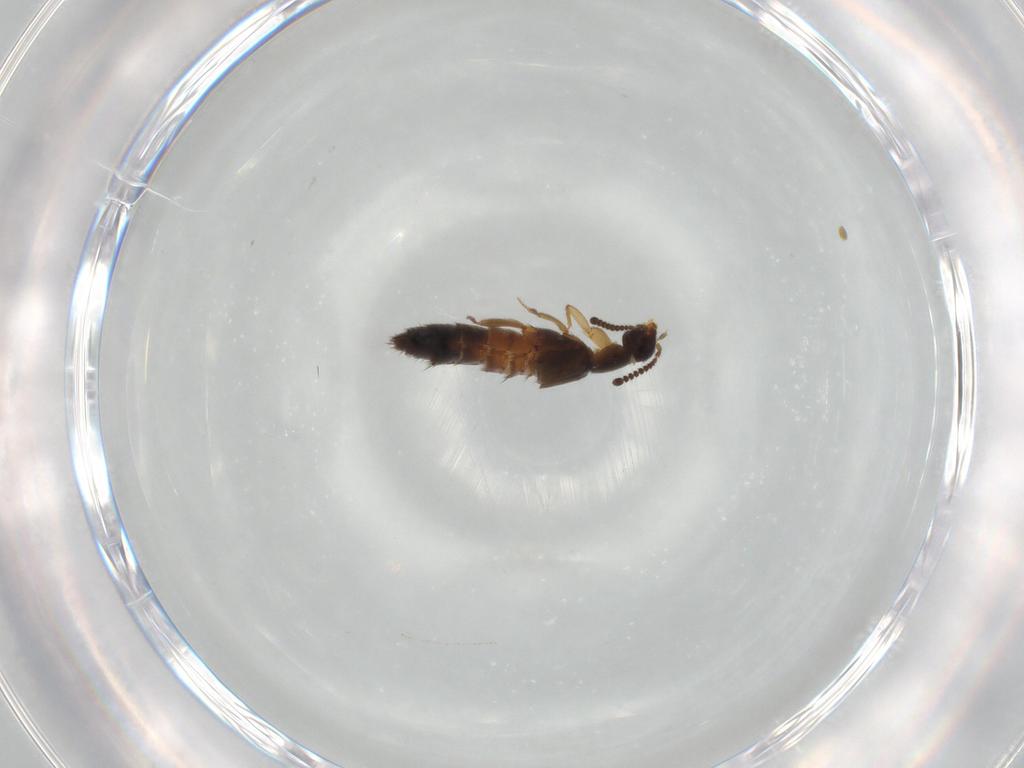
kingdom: Animalia
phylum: Arthropoda
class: Insecta
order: Coleoptera
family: Staphylinidae
